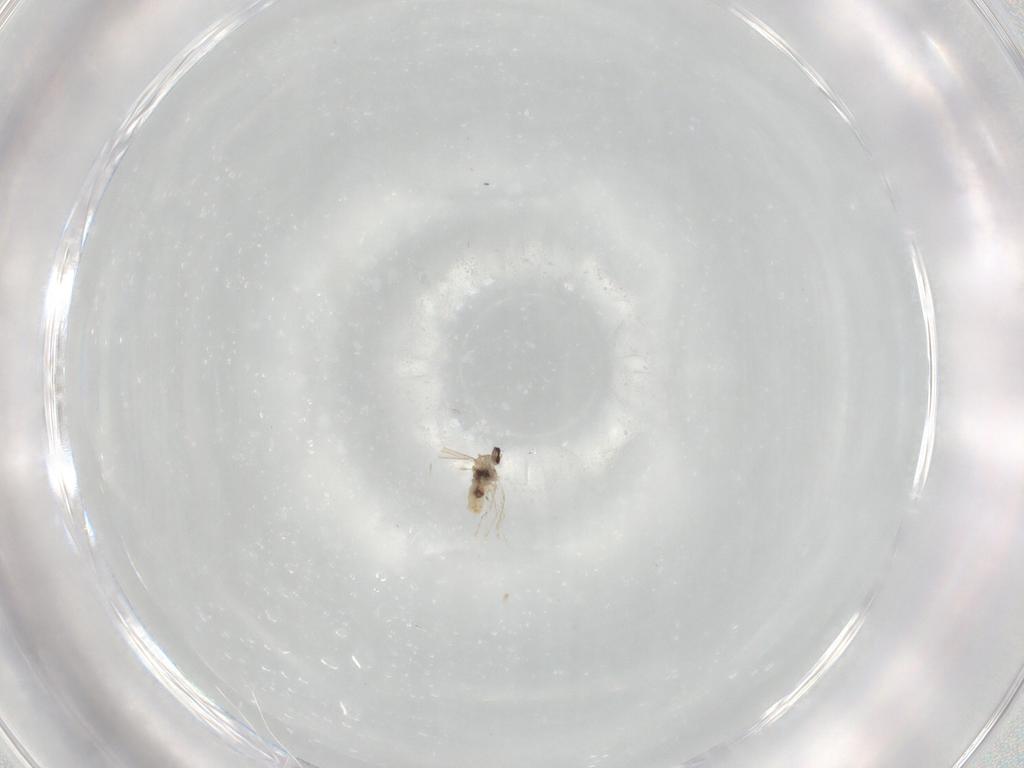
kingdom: Animalia
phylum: Arthropoda
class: Insecta
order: Diptera
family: Cecidomyiidae
